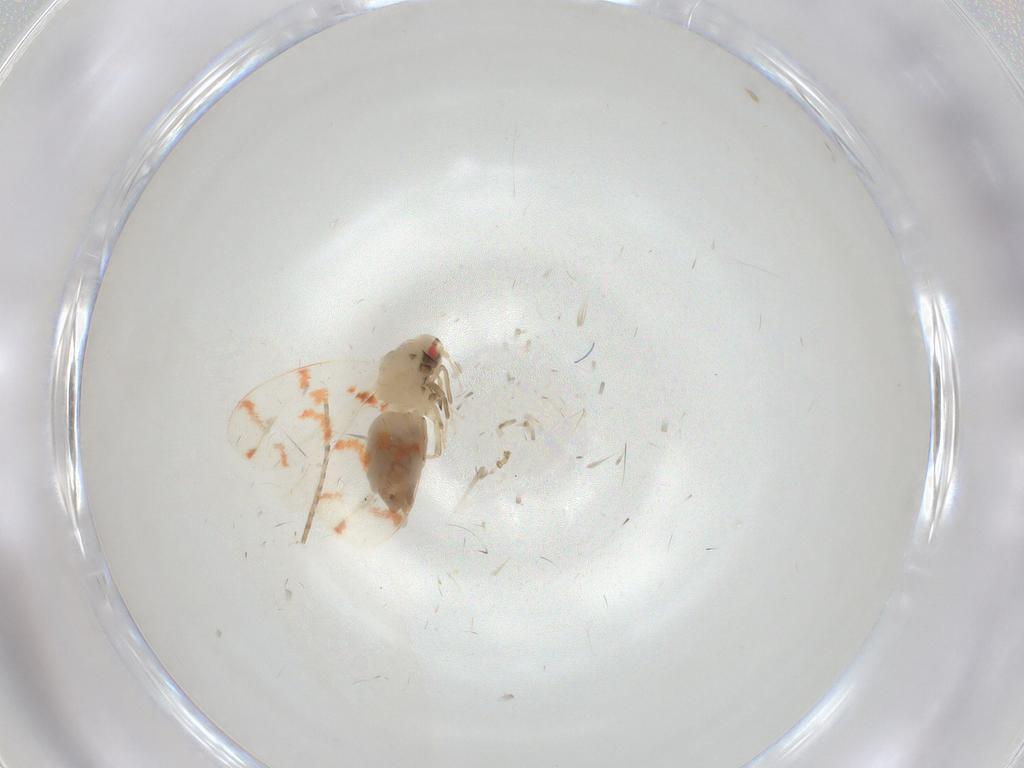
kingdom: Animalia
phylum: Arthropoda
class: Insecta
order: Hemiptera
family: Aleyrodidae
